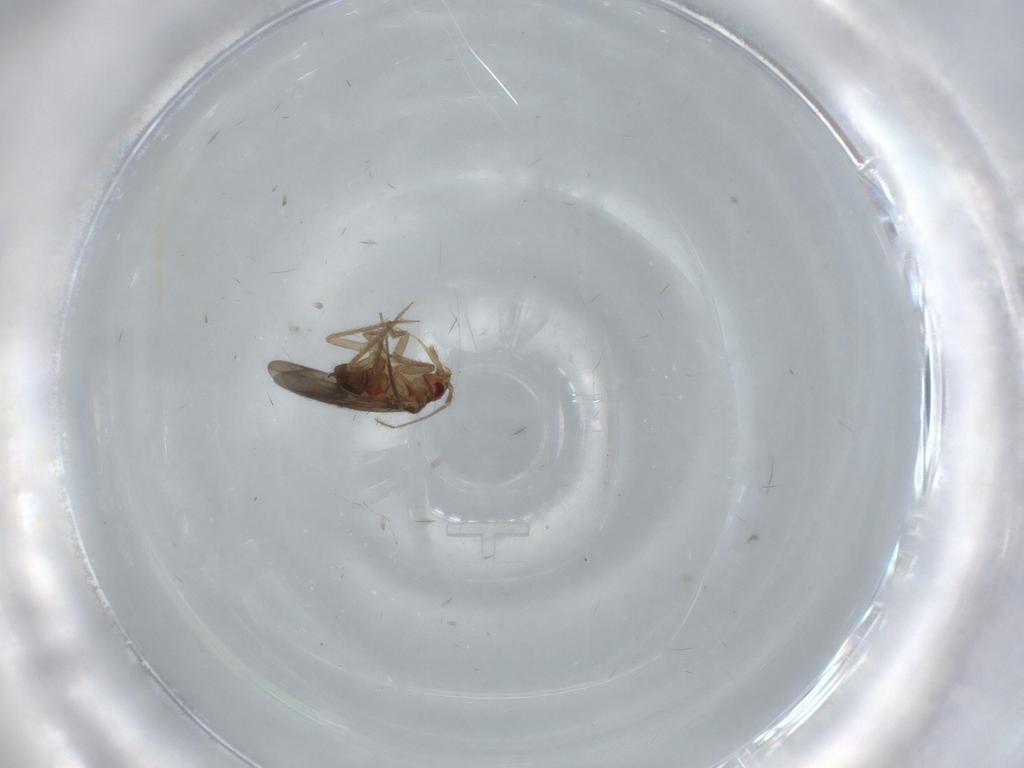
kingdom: Animalia
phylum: Arthropoda
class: Insecta
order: Hemiptera
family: Ceratocombidae
